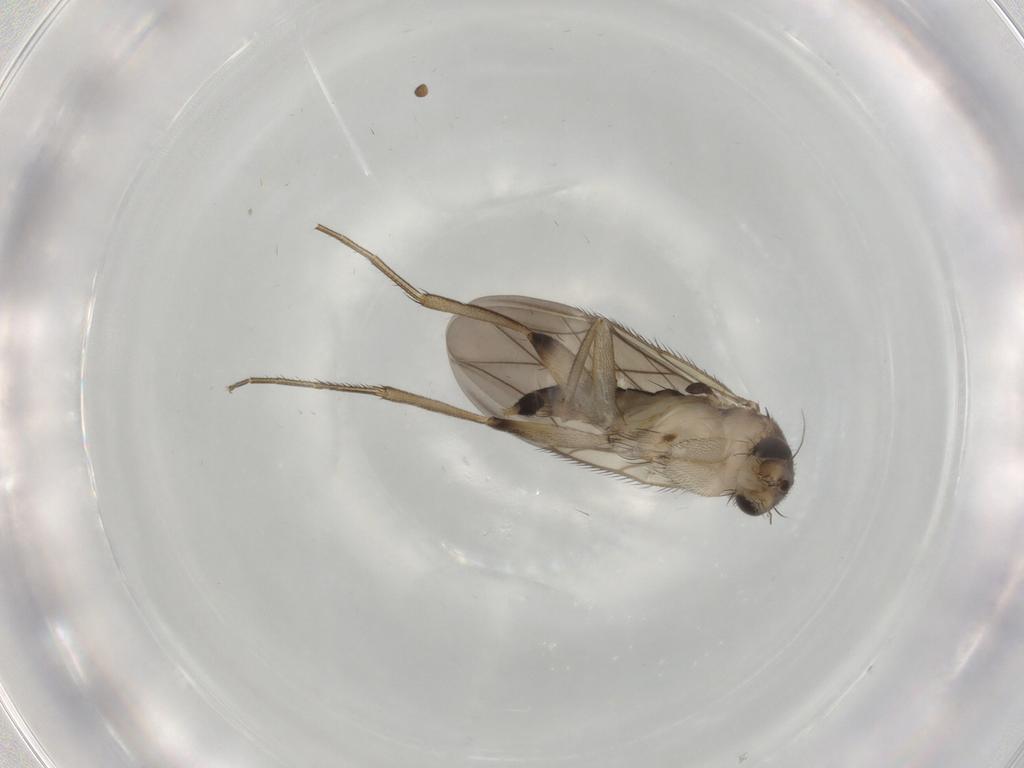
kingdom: Animalia
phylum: Arthropoda
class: Insecta
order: Diptera
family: Phoridae
